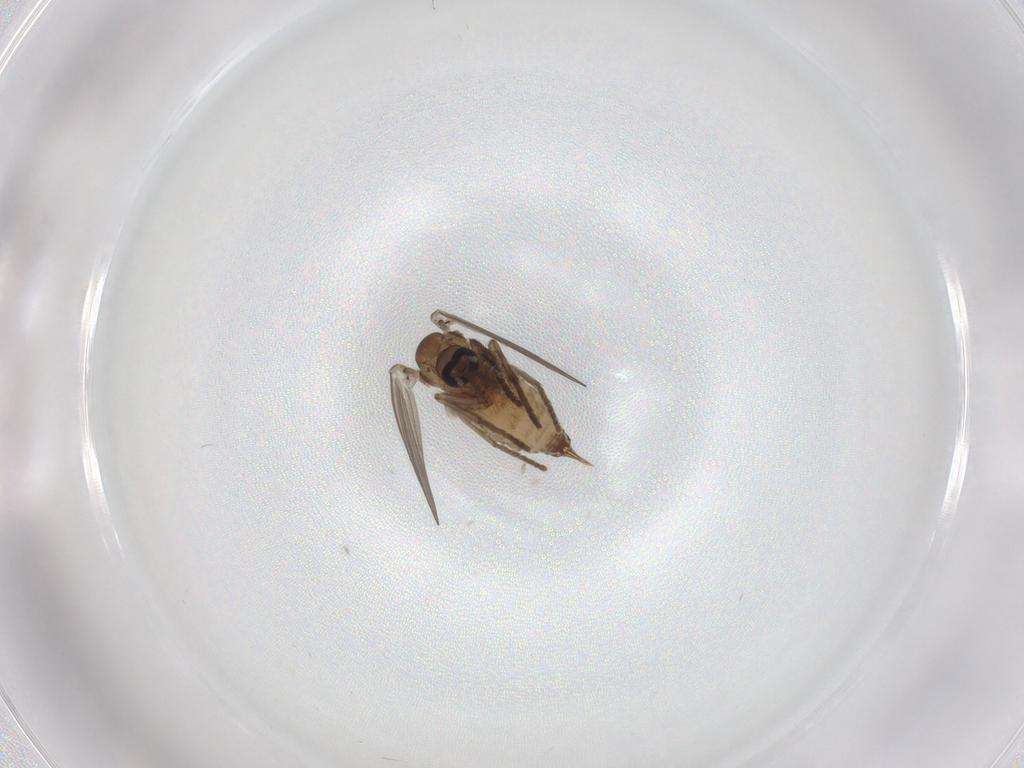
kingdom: Animalia
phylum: Arthropoda
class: Insecta
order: Diptera
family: Psychodidae
